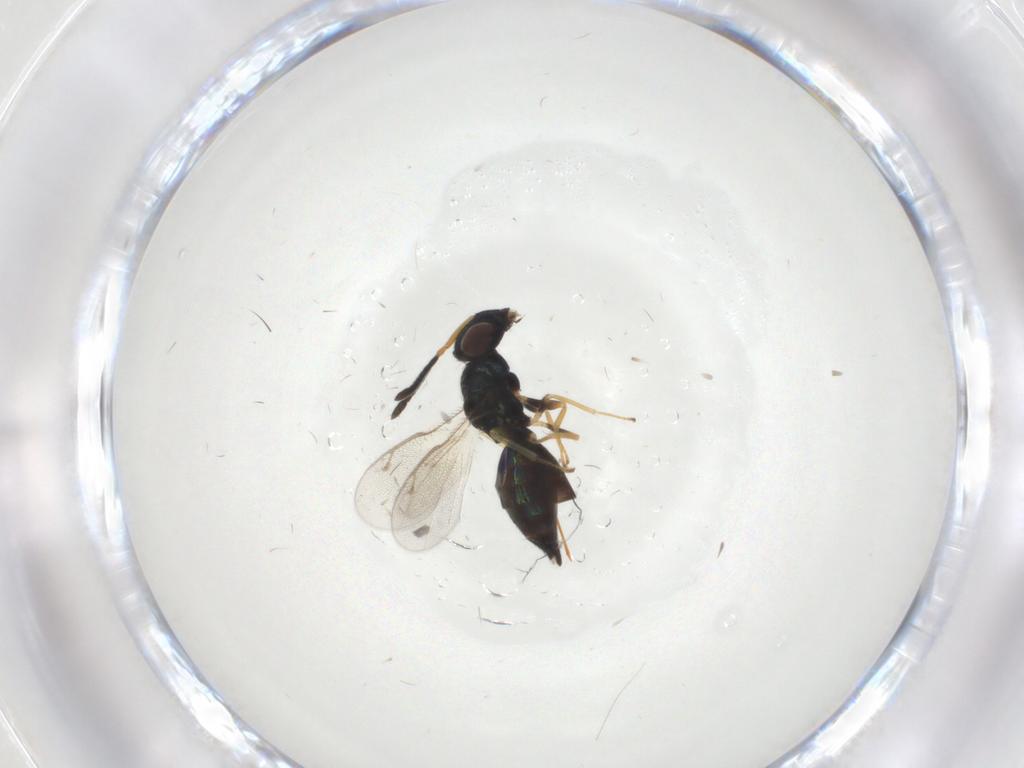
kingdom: Animalia
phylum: Arthropoda
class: Insecta
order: Hymenoptera
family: Pteromalidae
